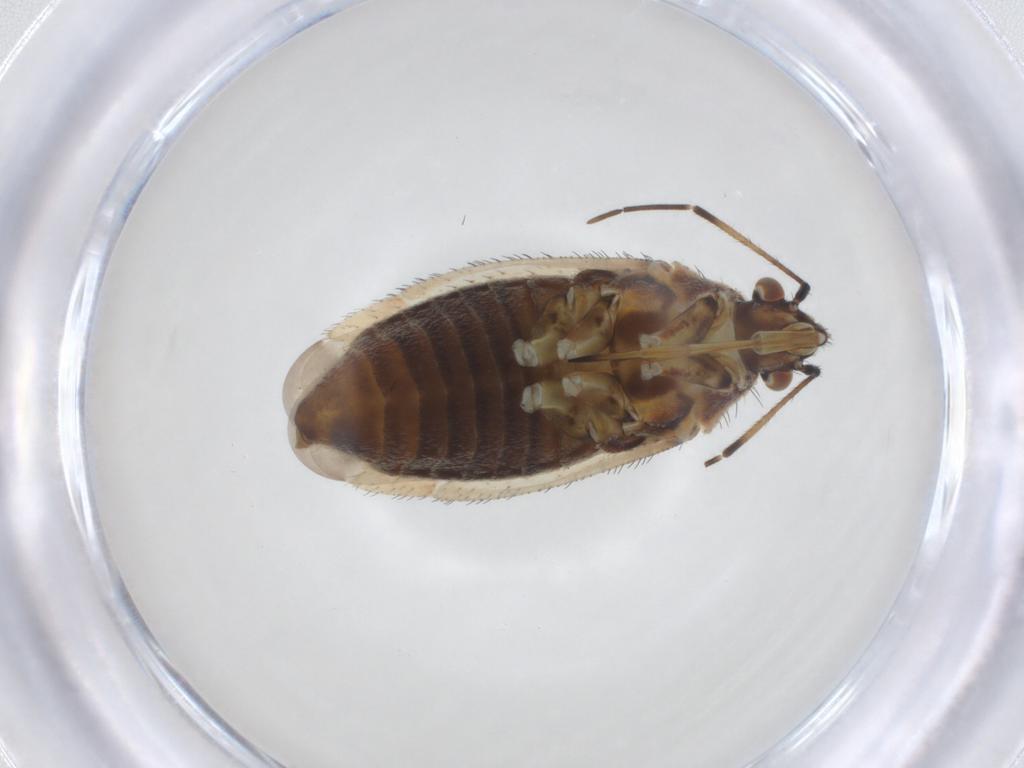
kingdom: Animalia
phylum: Arthropoda
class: Insecta
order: Hemiptera
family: Miridae
